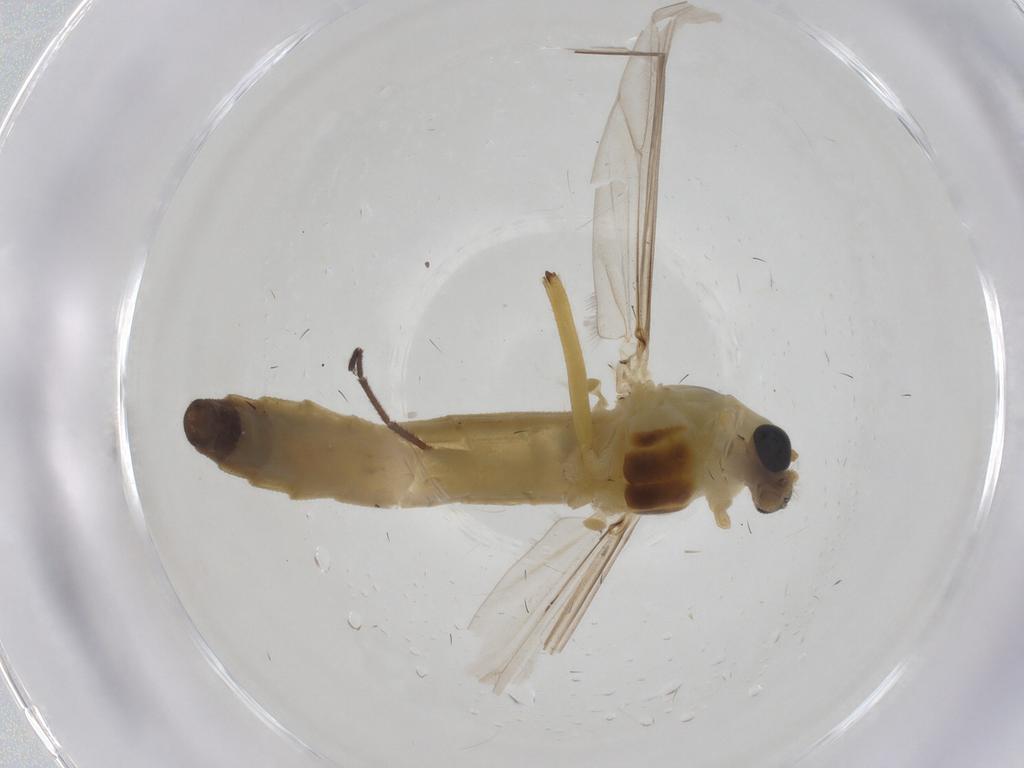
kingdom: Animalia
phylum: Arthropoda
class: Insecta
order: Diptera
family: Chironomidae
